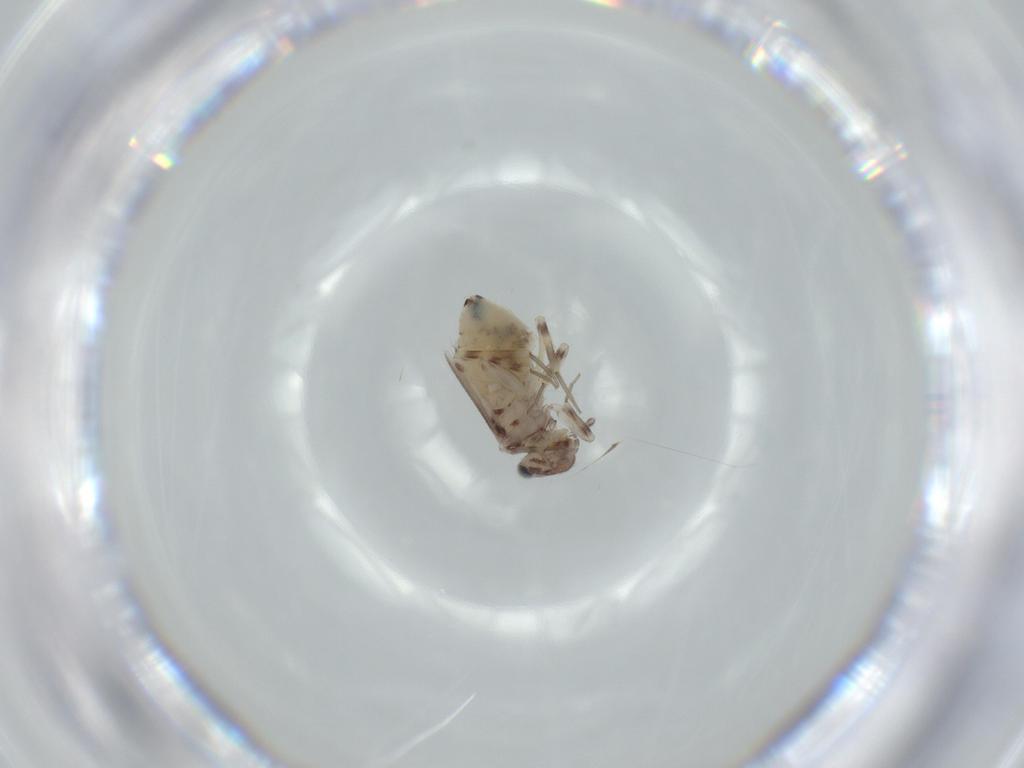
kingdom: Animalia
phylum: Arthropoda
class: Insecta
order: Psocodea
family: Lepidopsocidae
